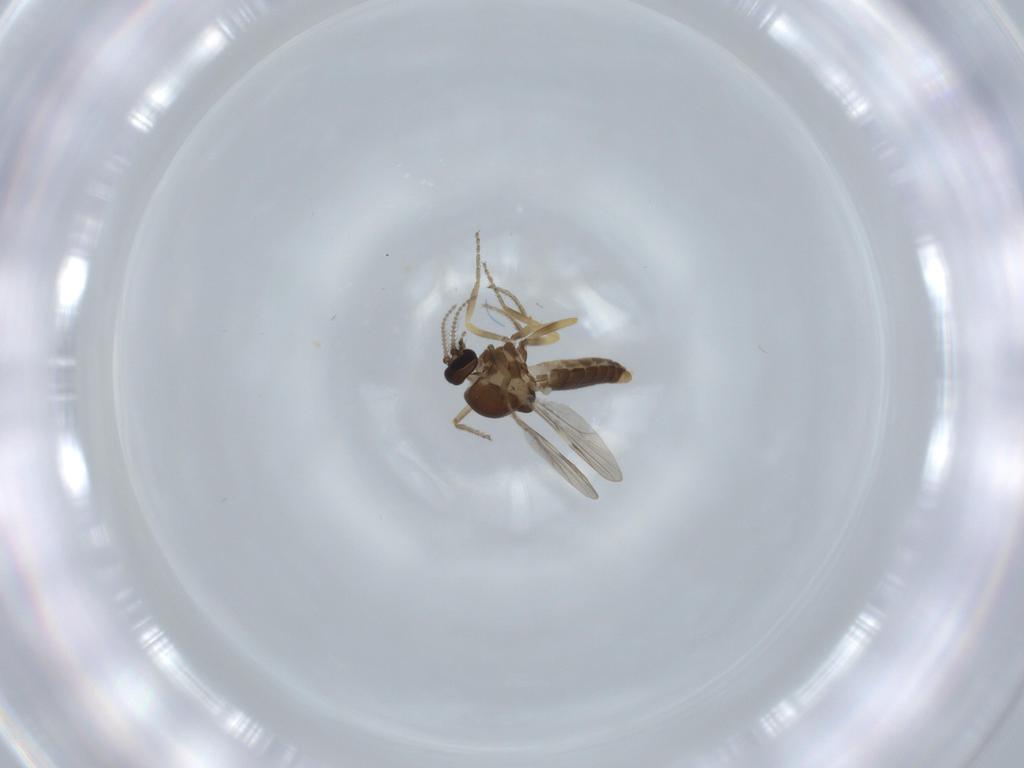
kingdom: Animalia
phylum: Arthropoda
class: Insecta
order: Diptera
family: Ceratopogonidae
